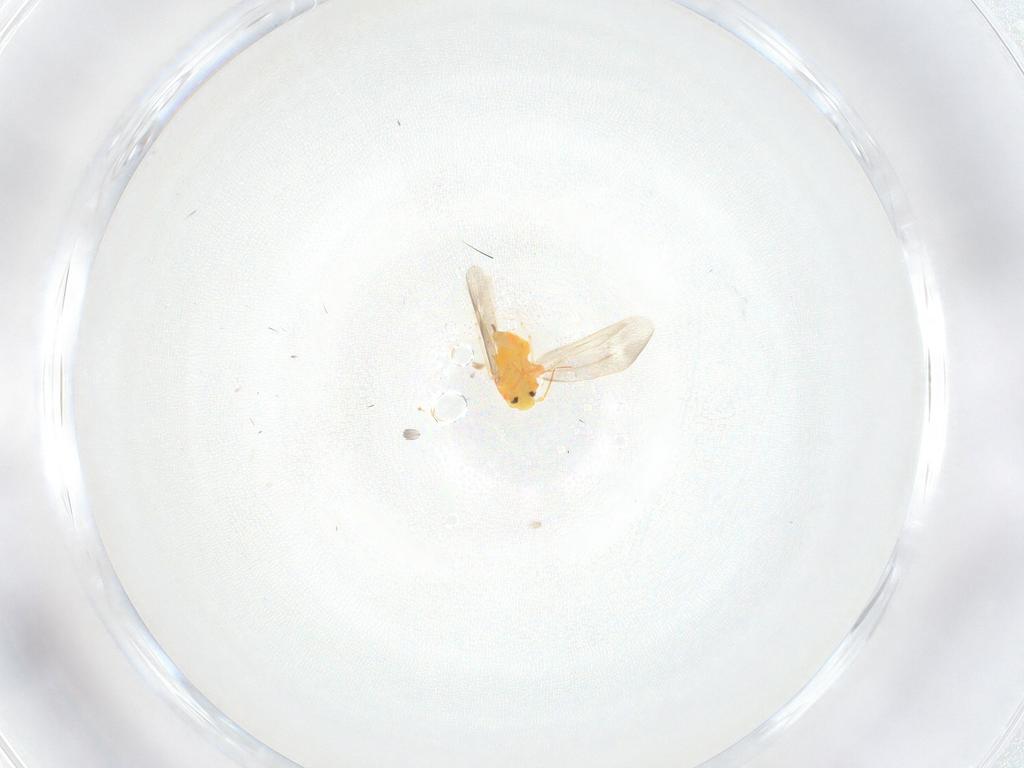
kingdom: Animalia
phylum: Arthropoda
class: Insecta
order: Hemiptera
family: Aleyrodidae
